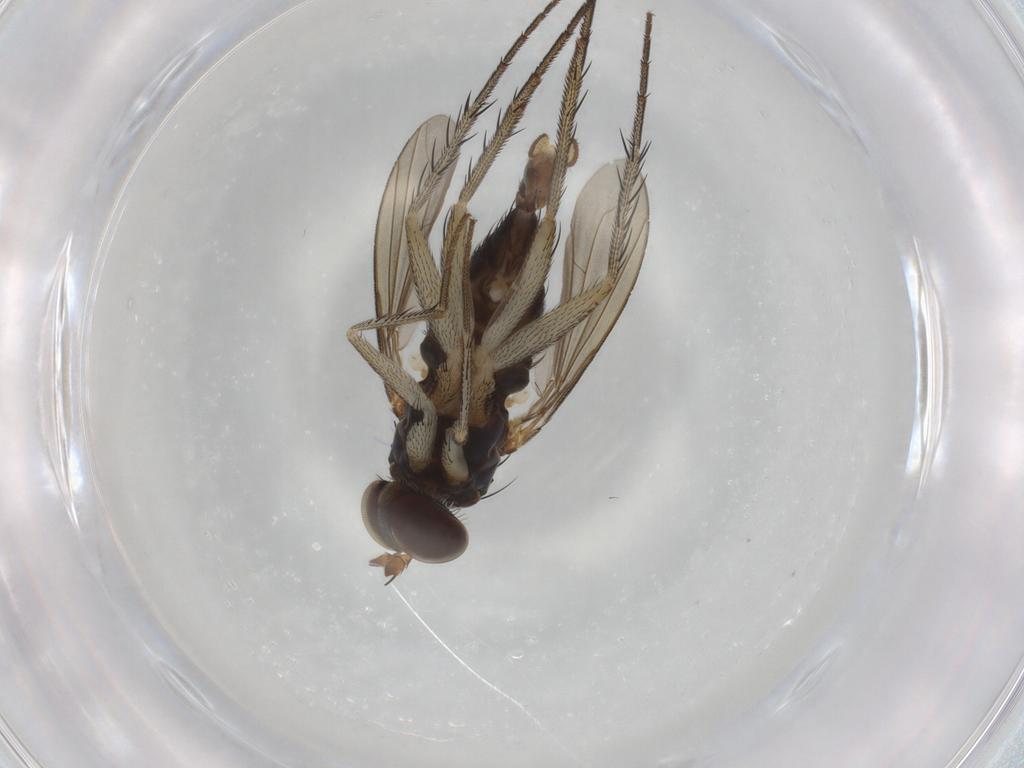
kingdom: Animalia
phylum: Arthropoda
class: Insecta
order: Diptera
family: Dolichopodidae
